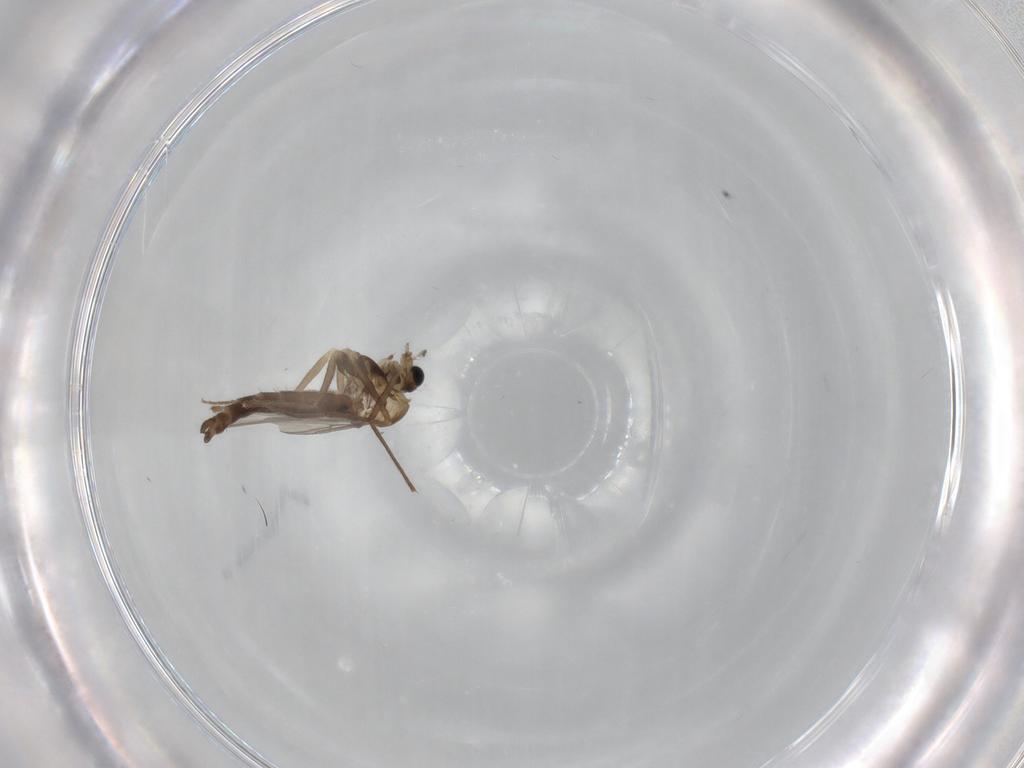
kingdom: Animalia
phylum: Arthropoda
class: Insecta
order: Diptera
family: Chironomidae
